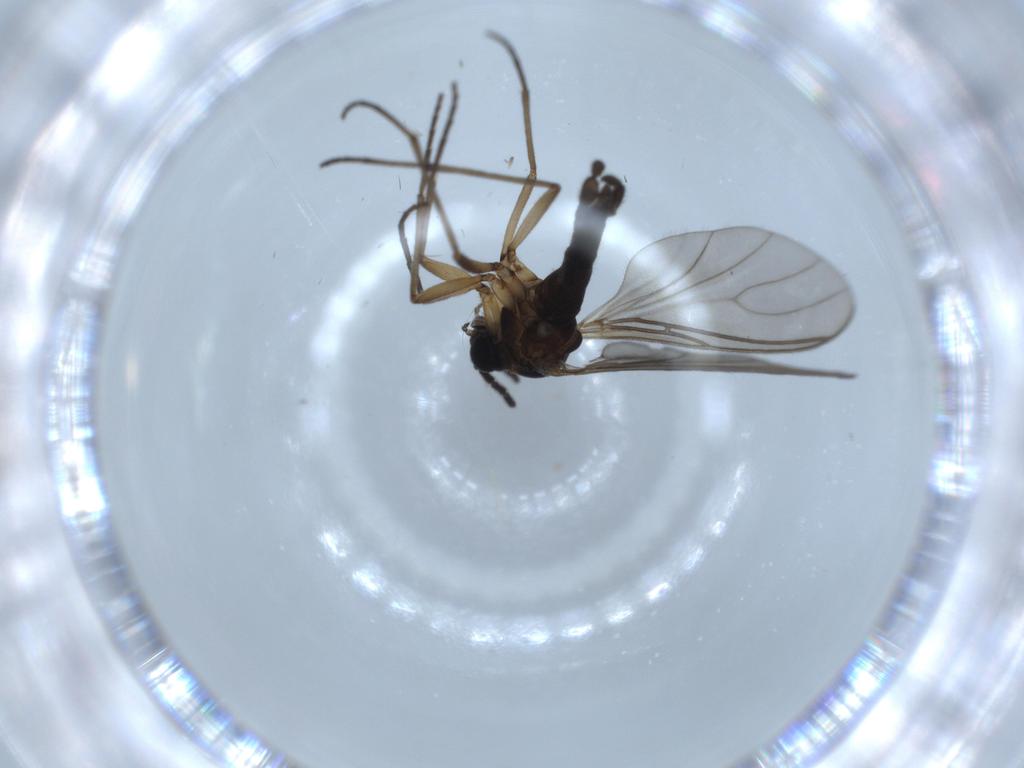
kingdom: Animalia
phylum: Arthropoda
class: Insecta
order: Diptera
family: Sciaridae
